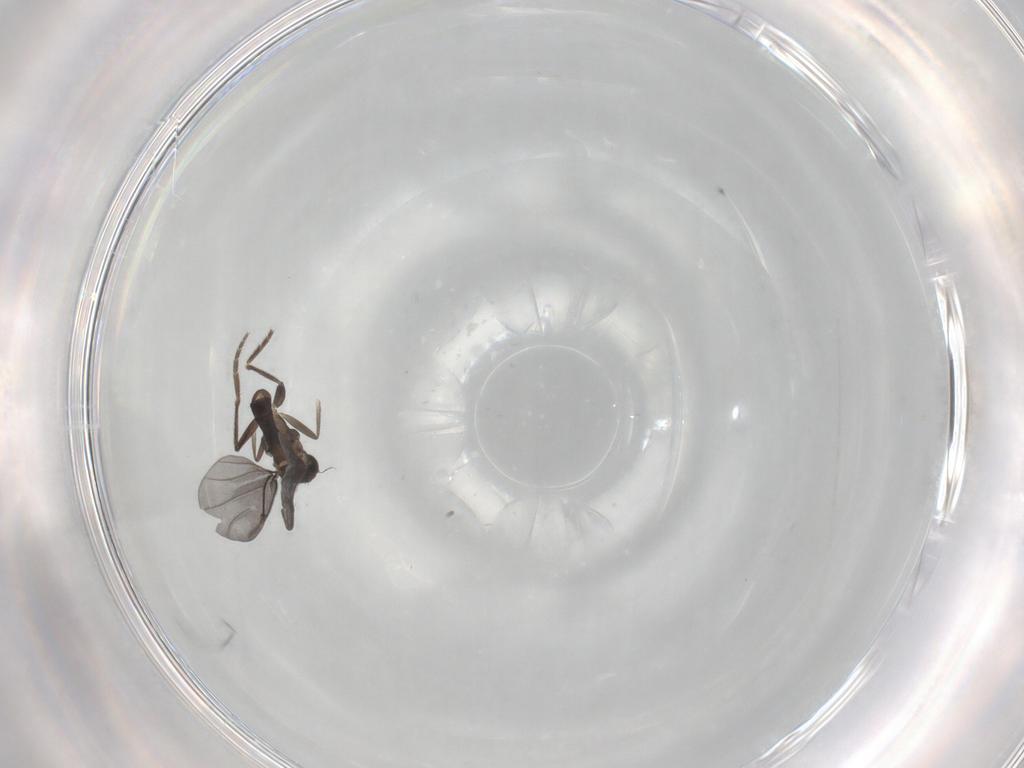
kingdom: Animalia
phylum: Arthropoda
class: Insecta
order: Diptera
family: Phoridae
